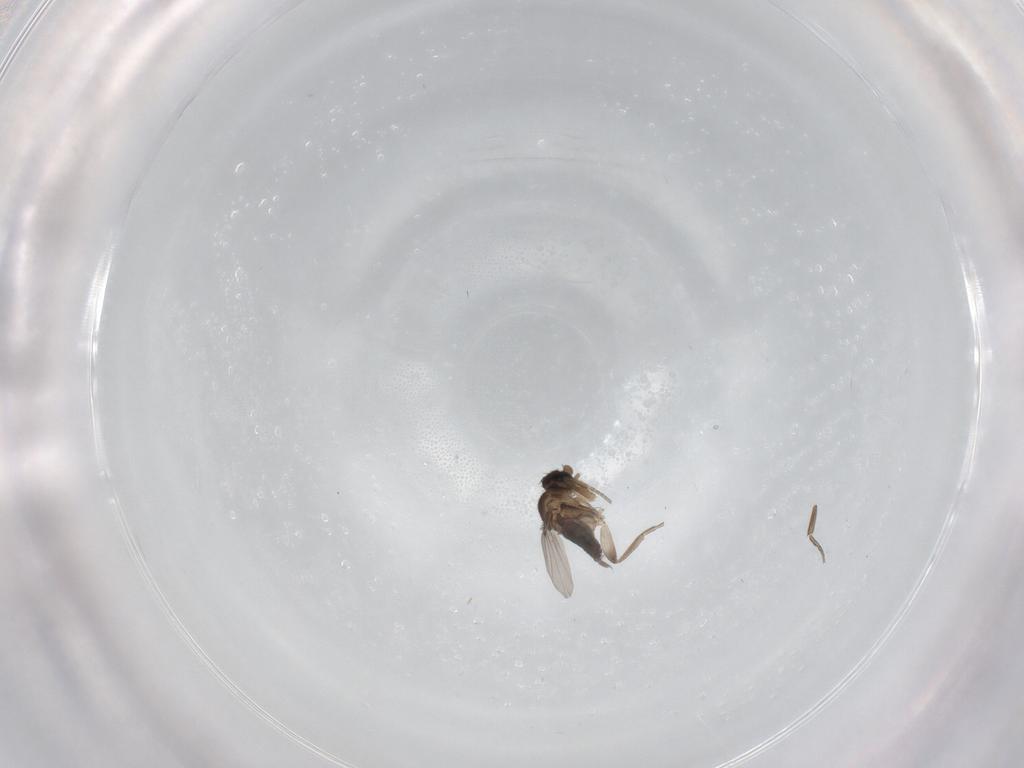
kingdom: Animalia
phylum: Arthropoda
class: Insecta
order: Diptera
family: Phoridae
